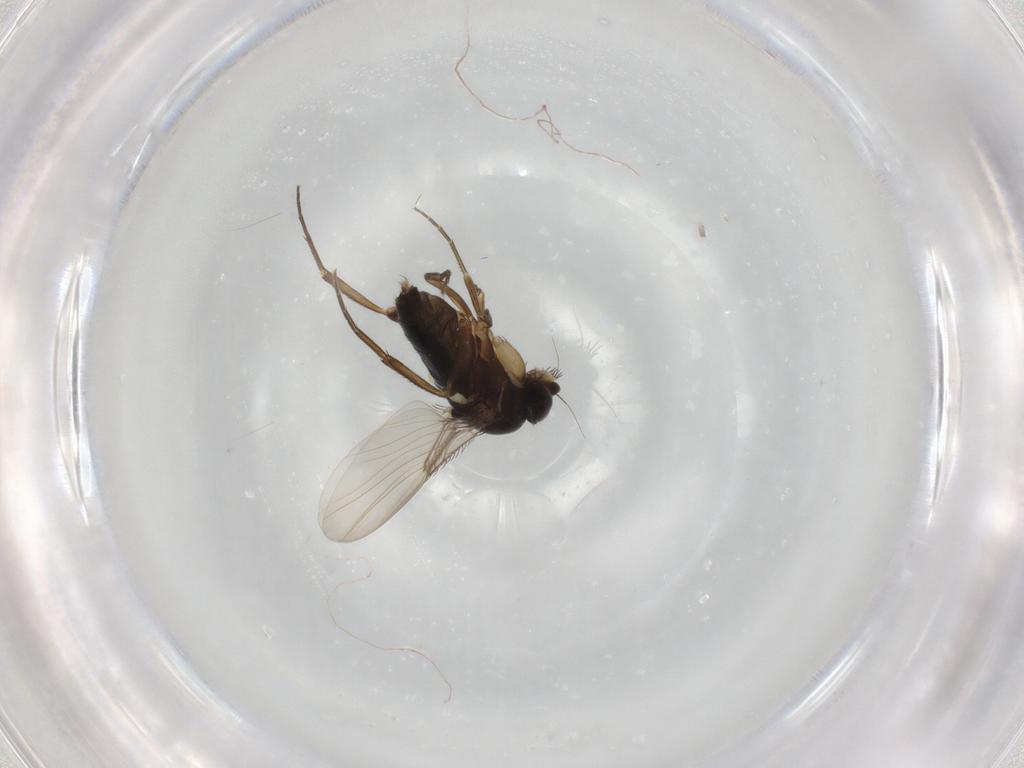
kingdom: Animalia
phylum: Arthropoda
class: Insecta
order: Diptera
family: Phoridae
